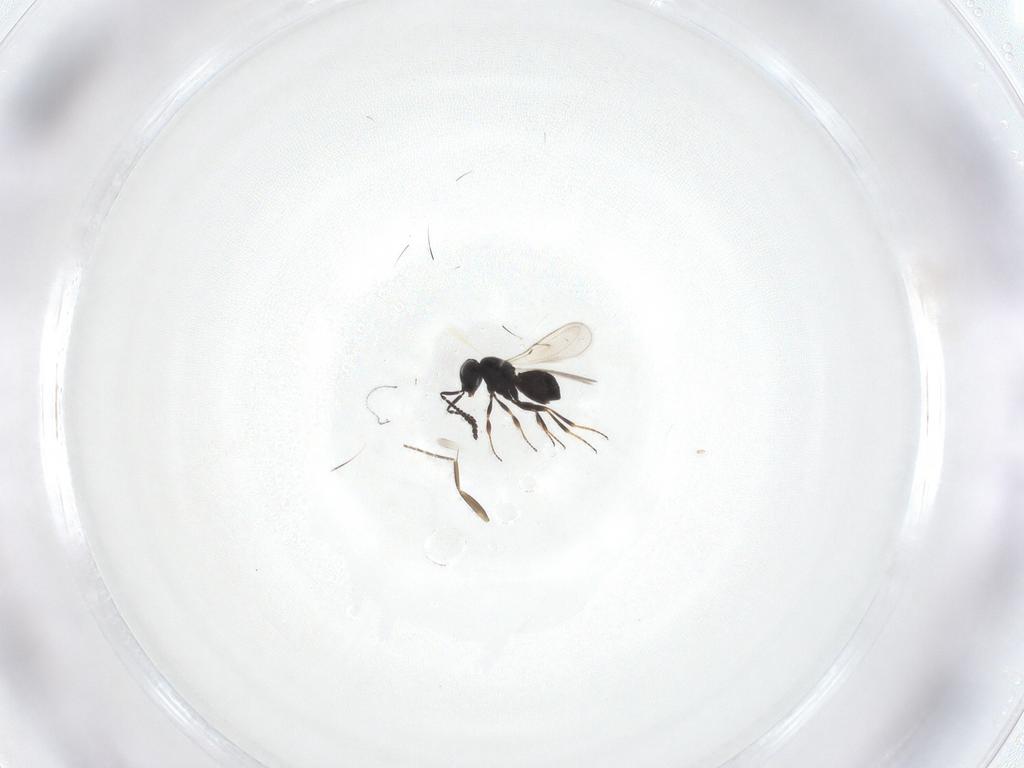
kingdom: Animalia
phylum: Arthropoda
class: Insecta
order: Hymenoptera
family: Scelionidae
